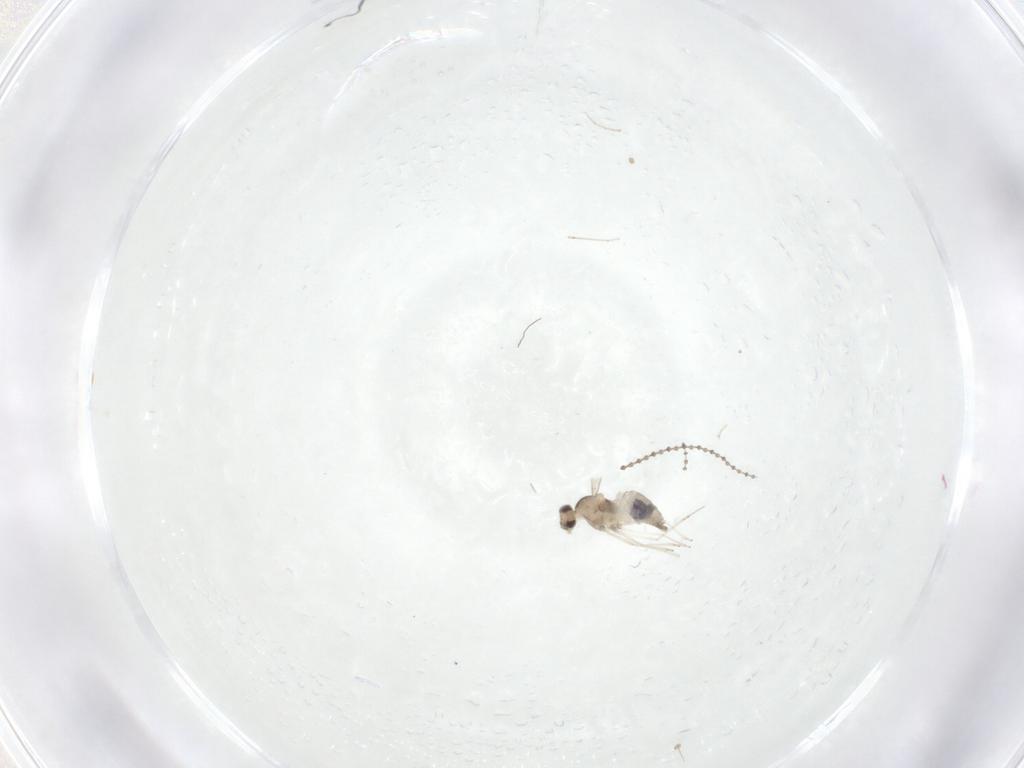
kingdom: Animalia
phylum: Arthropoda
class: Insecta
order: Diptera
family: Cecidomyiidae
